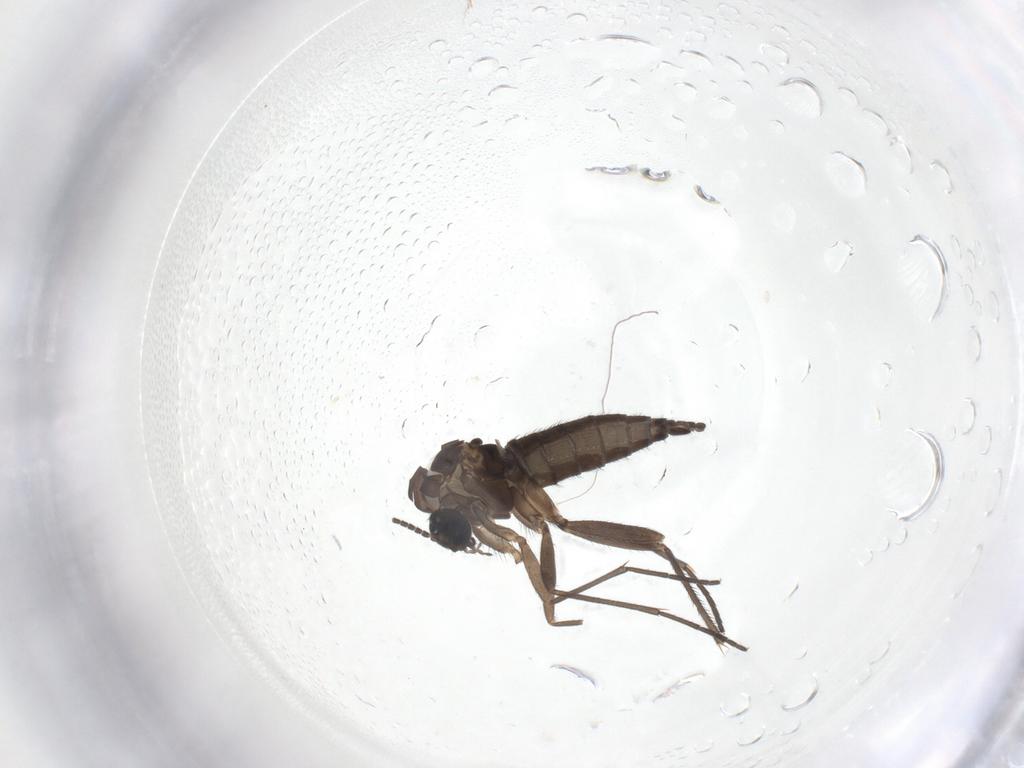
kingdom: Animalia
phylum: Arthropoda
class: Insecta
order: Diptera
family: Sciaridae
